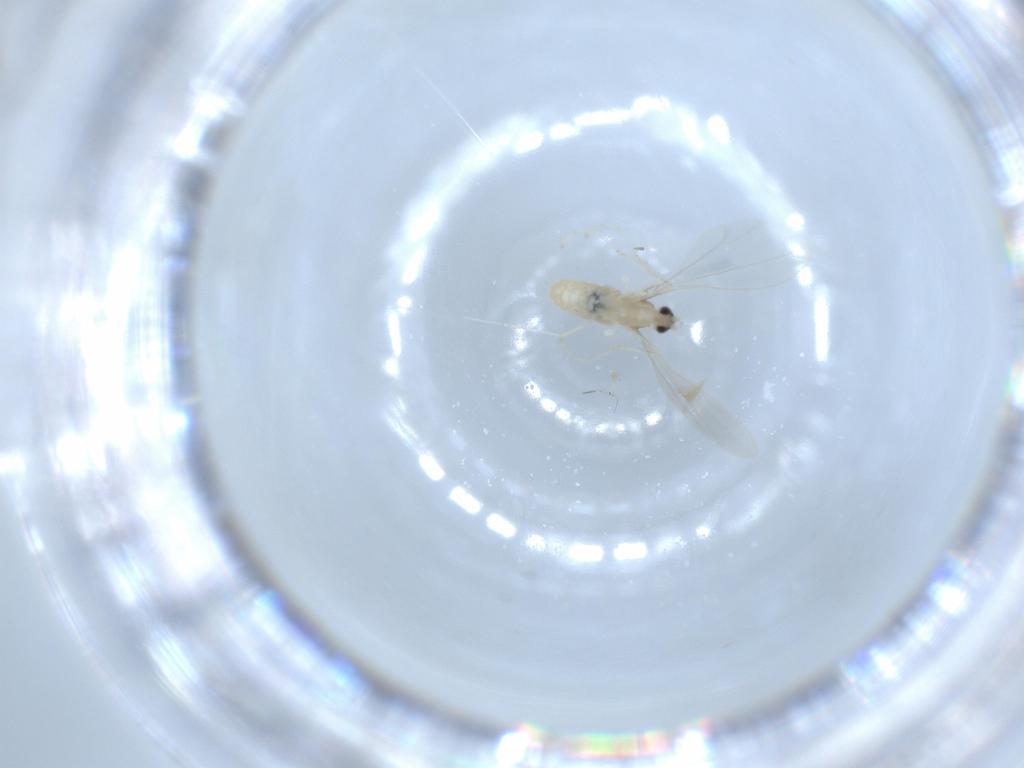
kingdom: Animalia
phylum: Arthropoda
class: Insecta
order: Diptera
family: Cecidomyiidae
